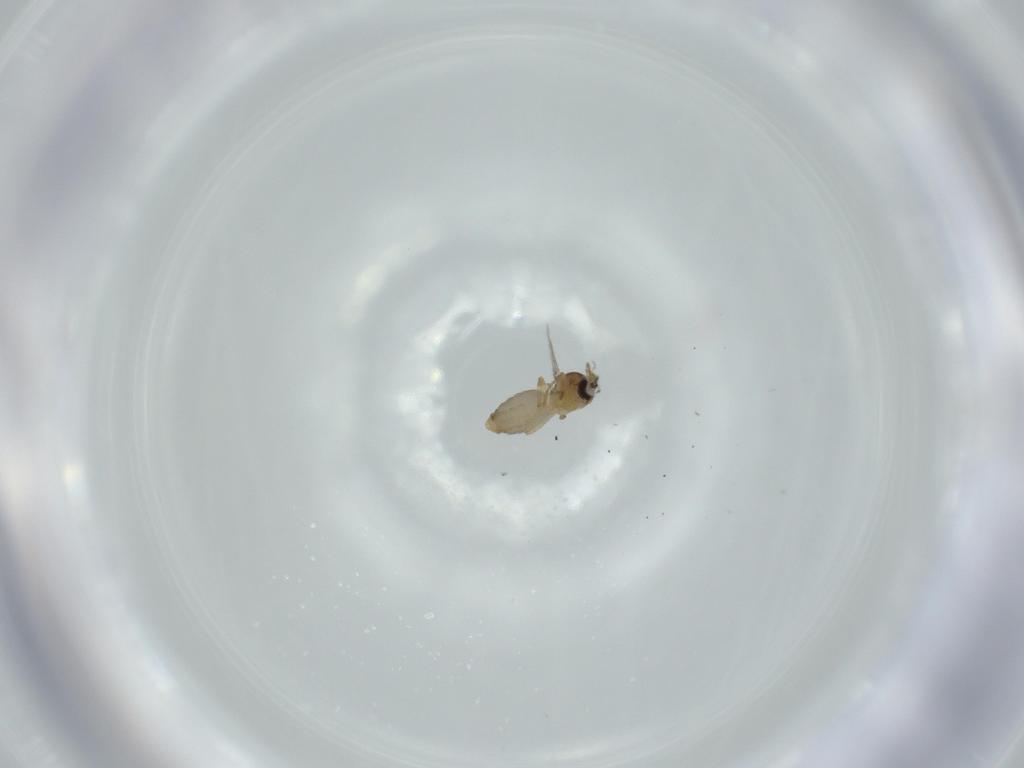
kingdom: Animalia
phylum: Arthropoda
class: Insecta
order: Diptera
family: Ceratopogonidae
